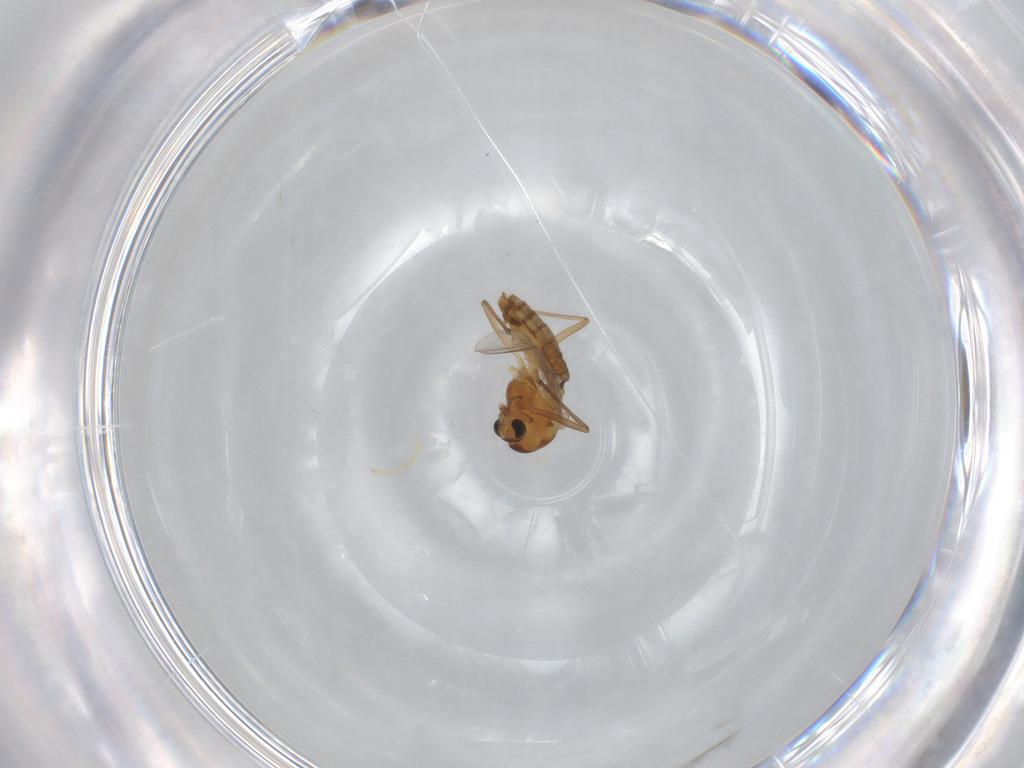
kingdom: Animalia
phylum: Arthropoda
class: Insecta
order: Diptera
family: Chironomidae
